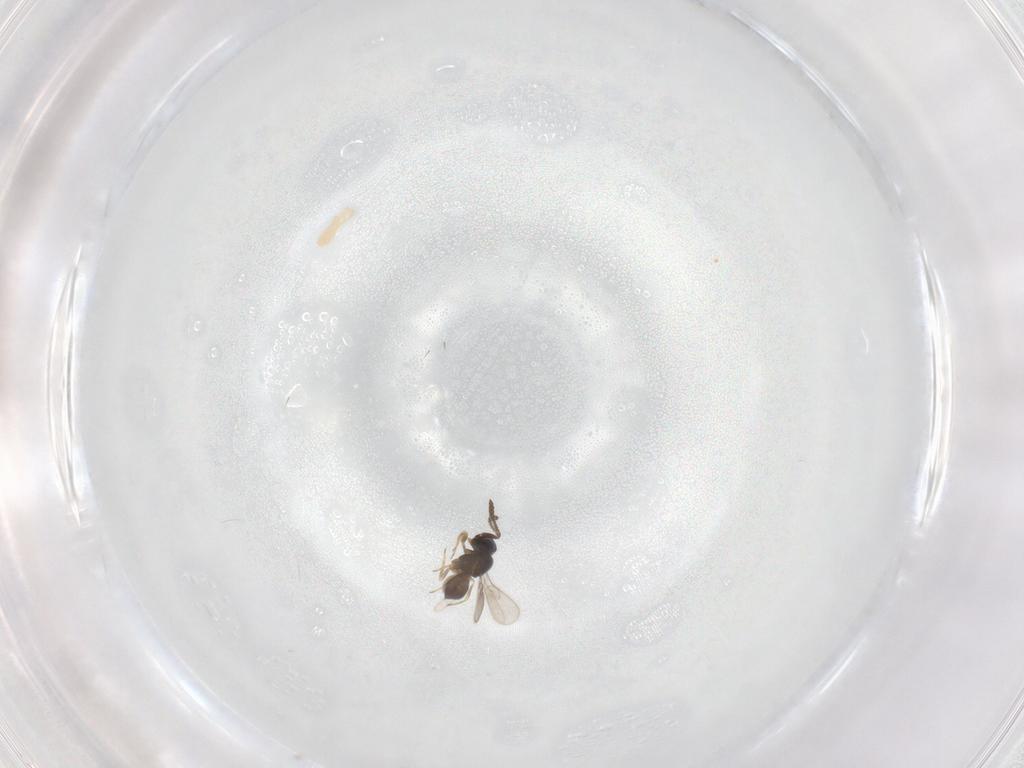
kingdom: Animalia
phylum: Arthropoda
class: Insecta
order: Hymenoptera
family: Scelionidae
